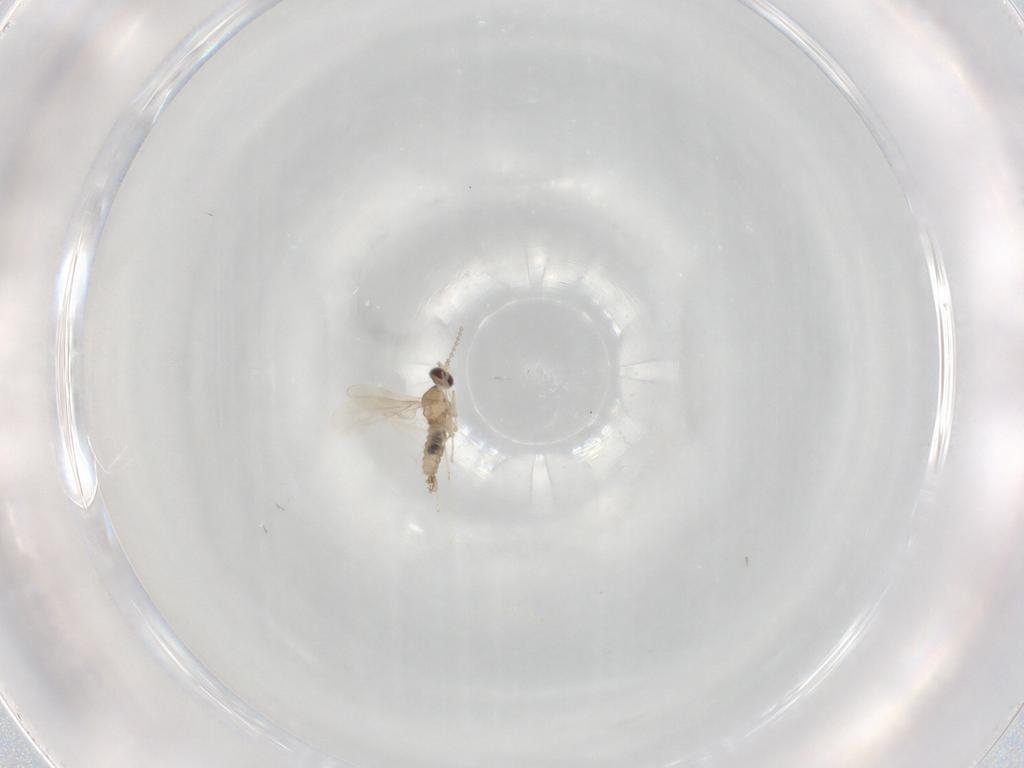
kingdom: Animalia
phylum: Arthropoda
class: Insecta
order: Diptera
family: Cecidomyiidae
